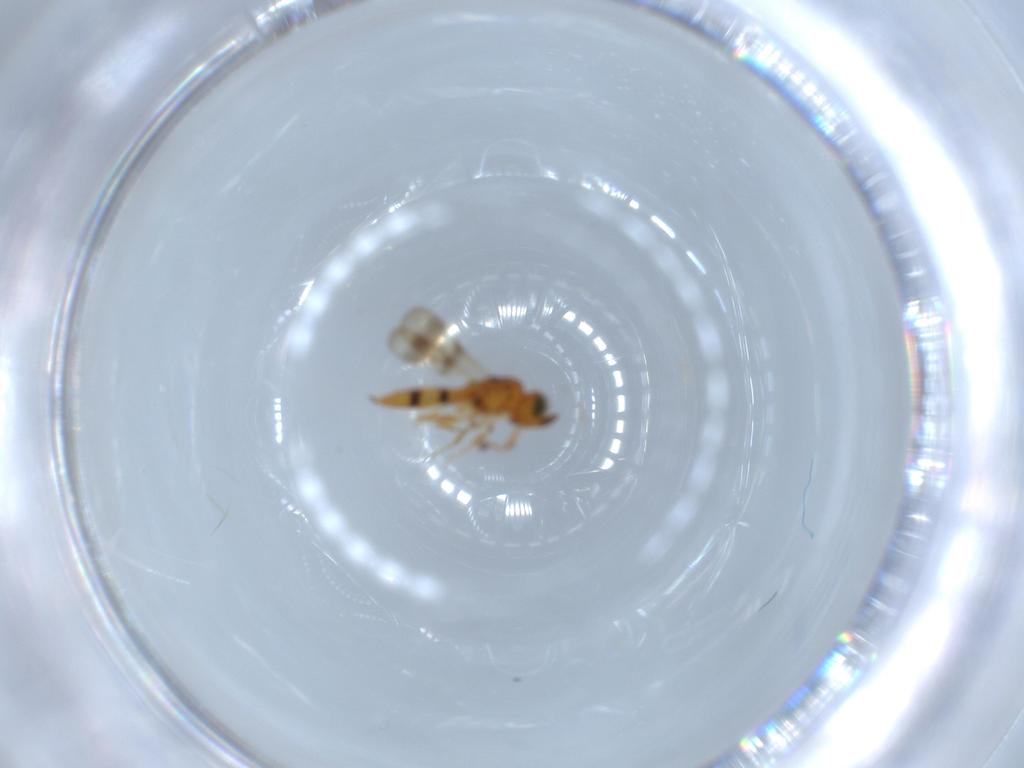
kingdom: Animalia
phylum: Arthropoda
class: Insecta
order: Hymenoptera
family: Scelionidae
